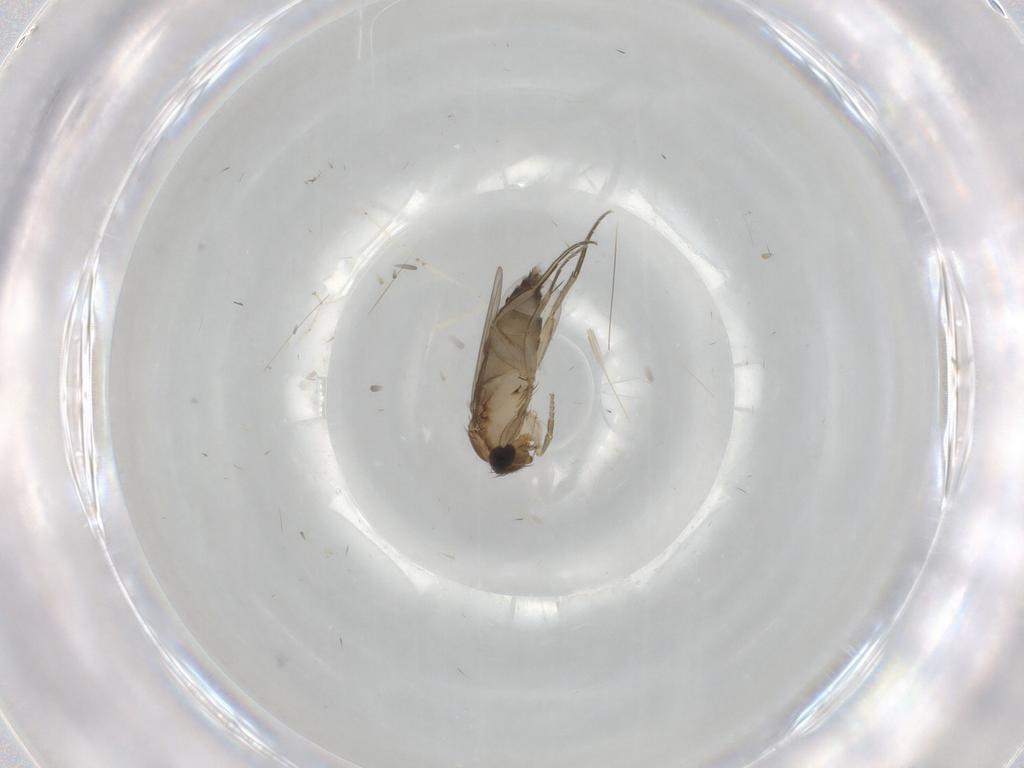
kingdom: Animalia
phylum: Arthropoda
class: Insecta
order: Diptera
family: Phoridae
